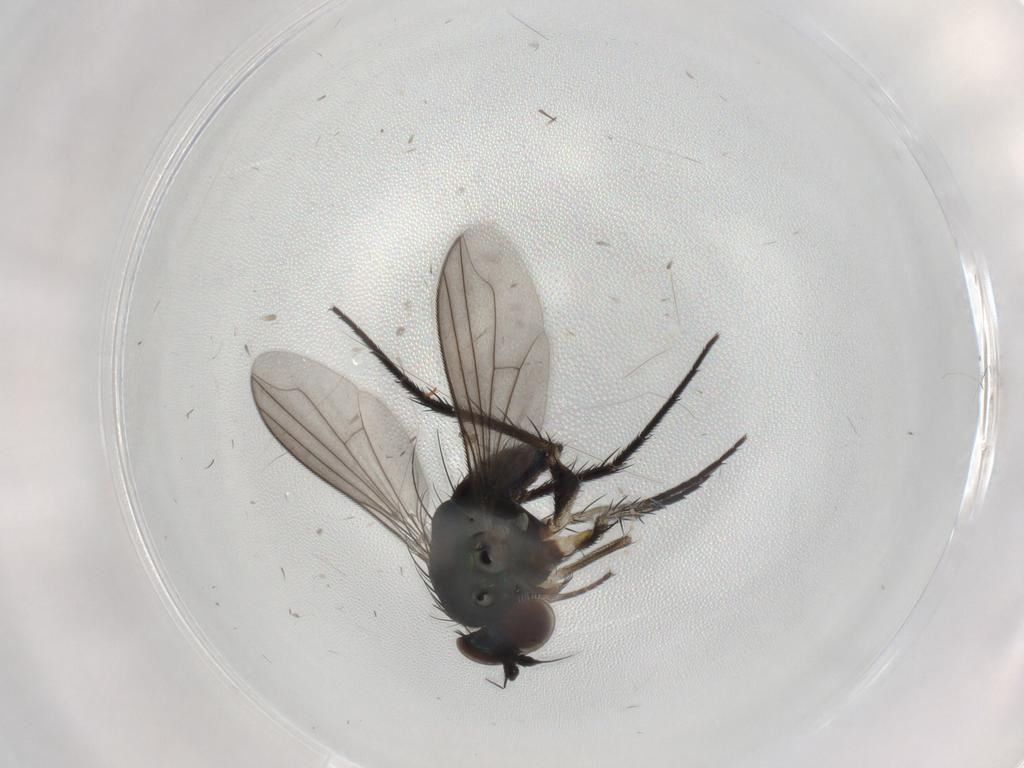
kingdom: Animalia
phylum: Arthropoda
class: Insecta
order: Diptera
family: Dolichopodidae
